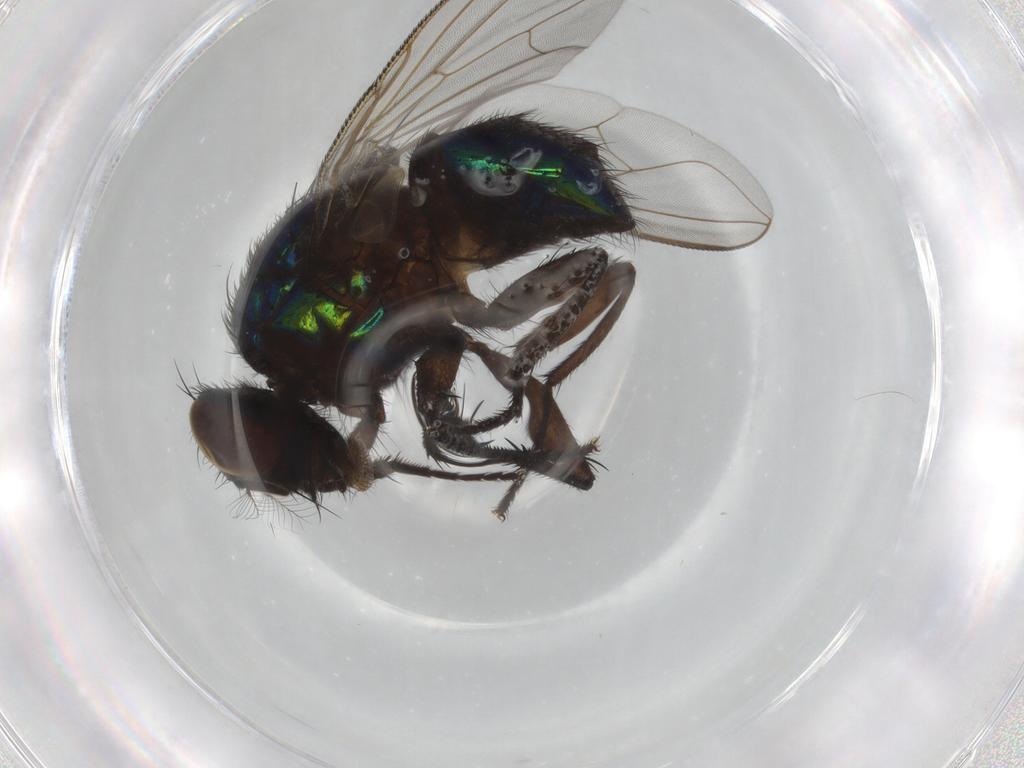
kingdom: Animalia
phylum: Arthropoda
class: Insecta
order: Diptera
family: Muscidae
